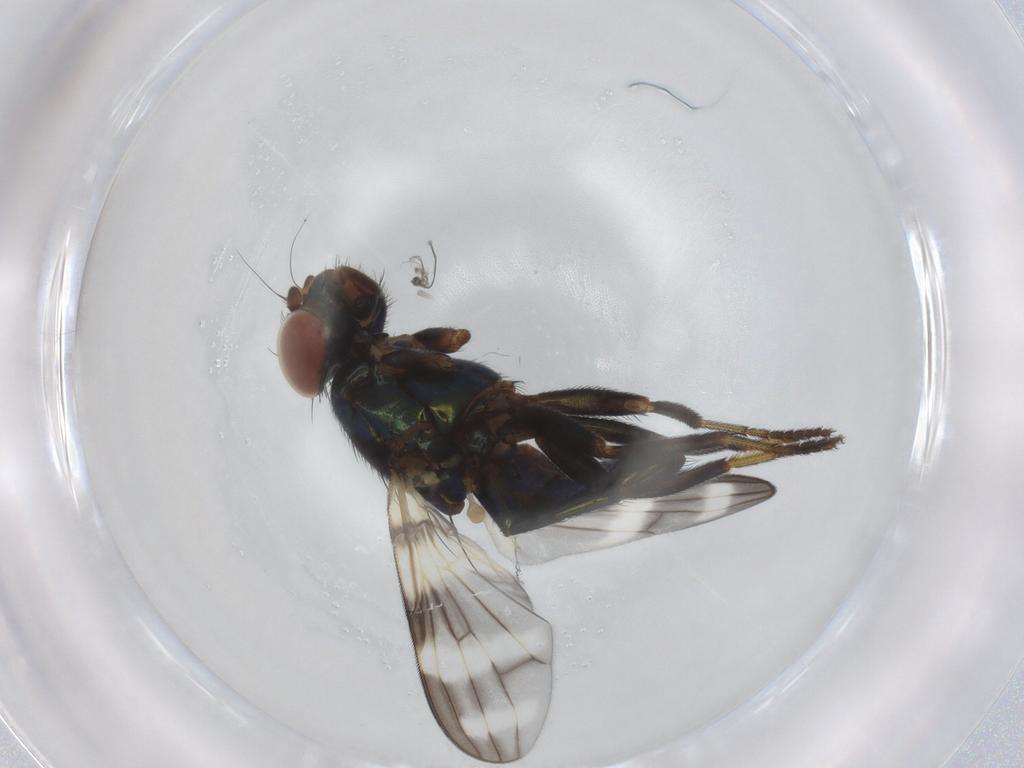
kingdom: Animalia
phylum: Arthropoda
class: Insecta
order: Diptera
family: Ulidiidae
